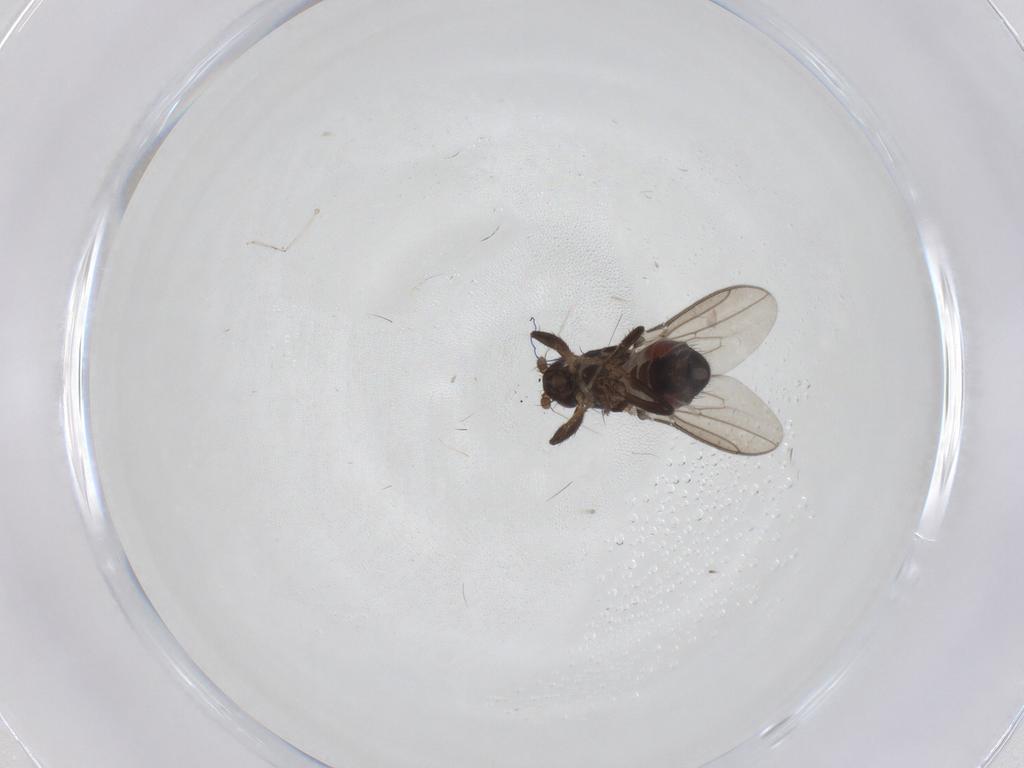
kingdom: Animalia
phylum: Arthropoda
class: Insecta
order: Diptera
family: Sphaeroceridae
